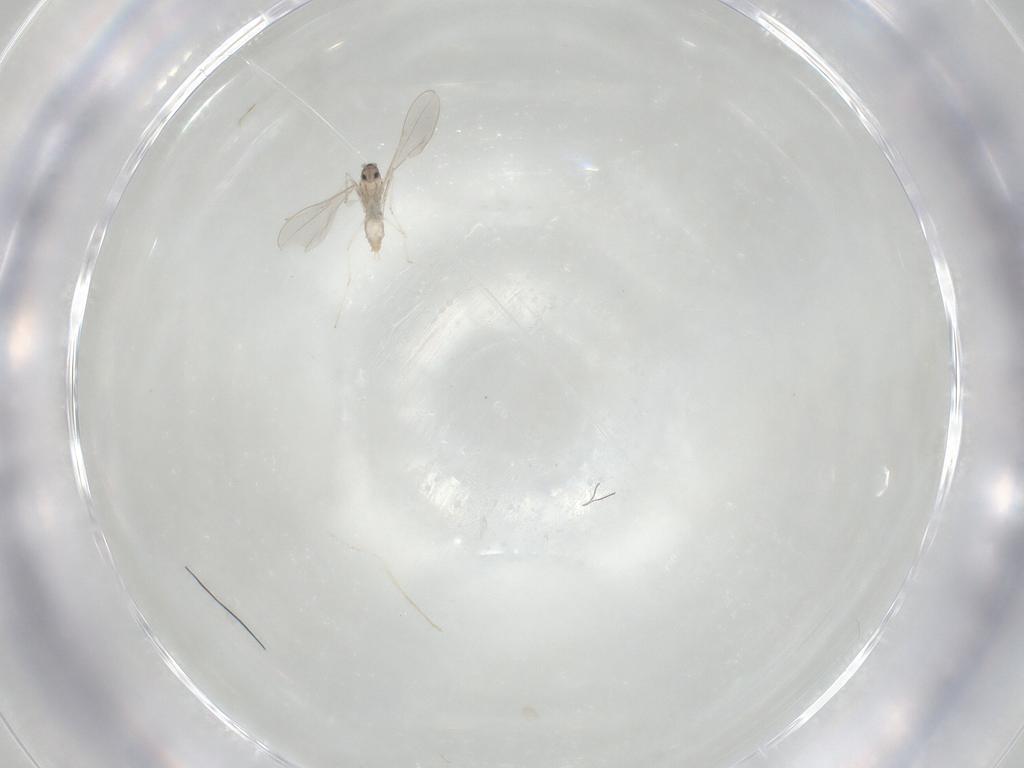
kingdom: Animalia
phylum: Arthropoda
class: Insecta
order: Diptera
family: Cecidomyiidae
